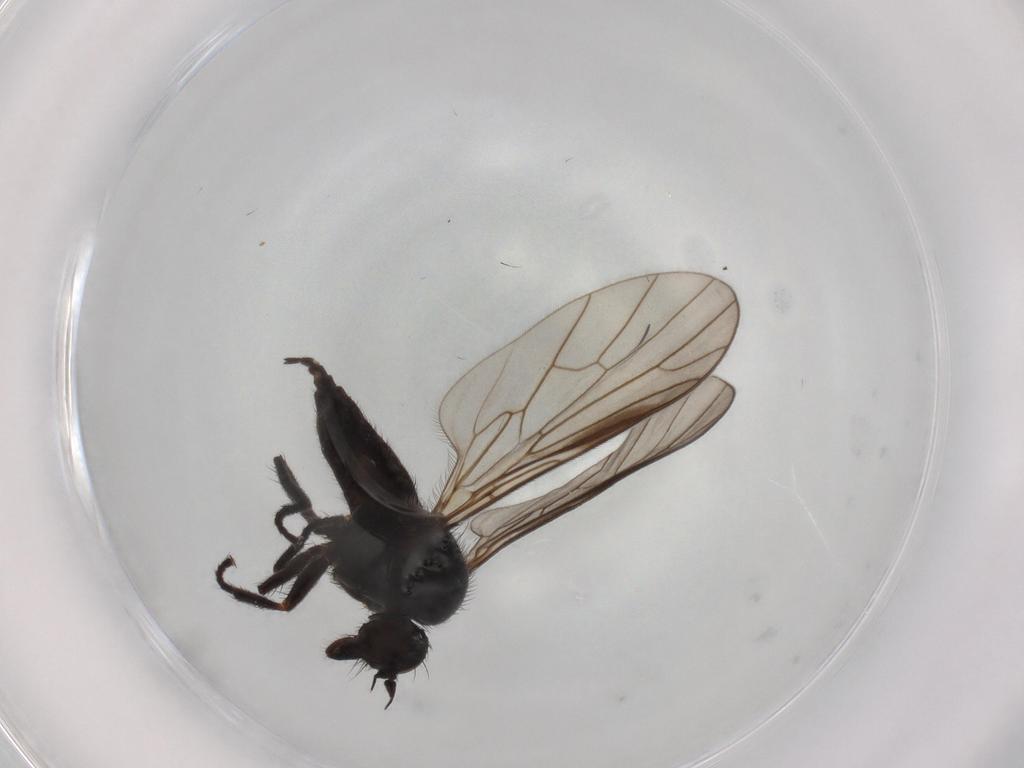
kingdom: Animalia
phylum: Arthropoda
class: Insecta
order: Diptera
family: Empididae
